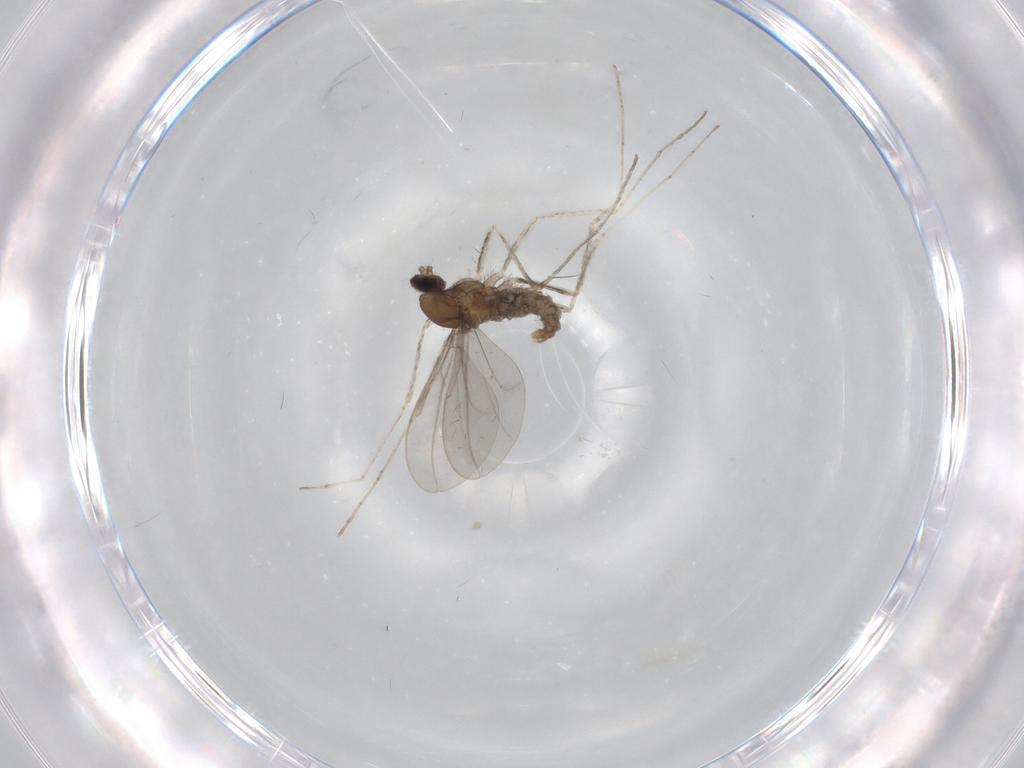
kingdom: Animalia
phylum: Arthropoda
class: Insecta
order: Diptera
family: Cecidomyiidae
